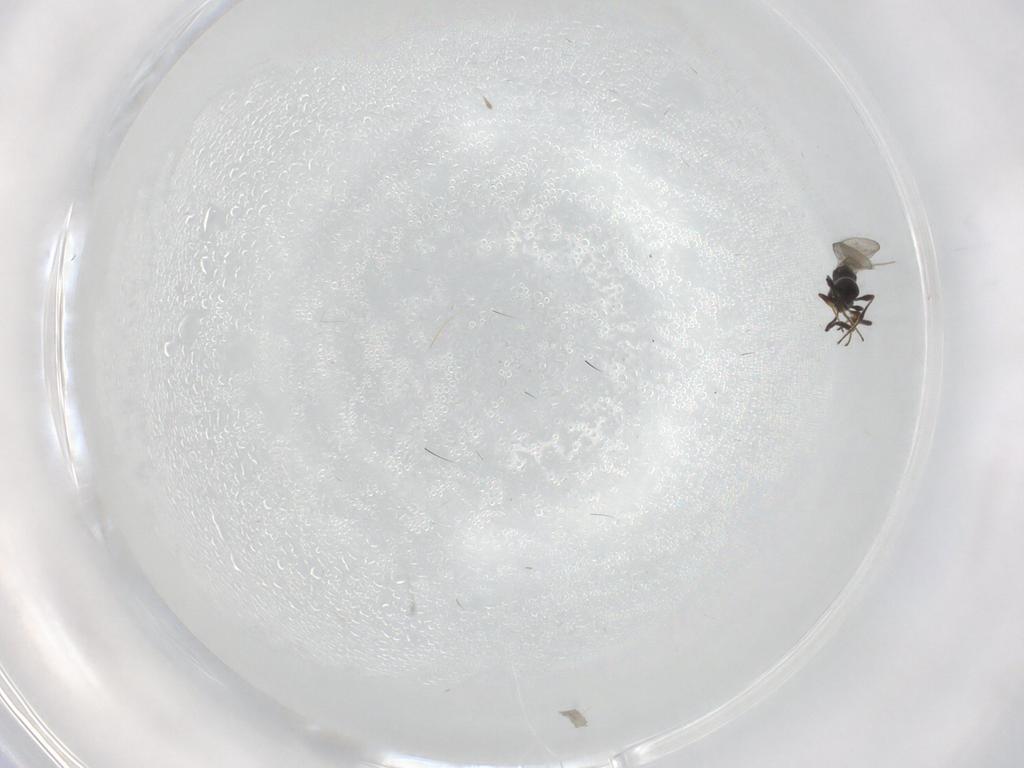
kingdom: Animalia
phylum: Arthropoda
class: Insecta
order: Hymenoptera
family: Platygastridae
